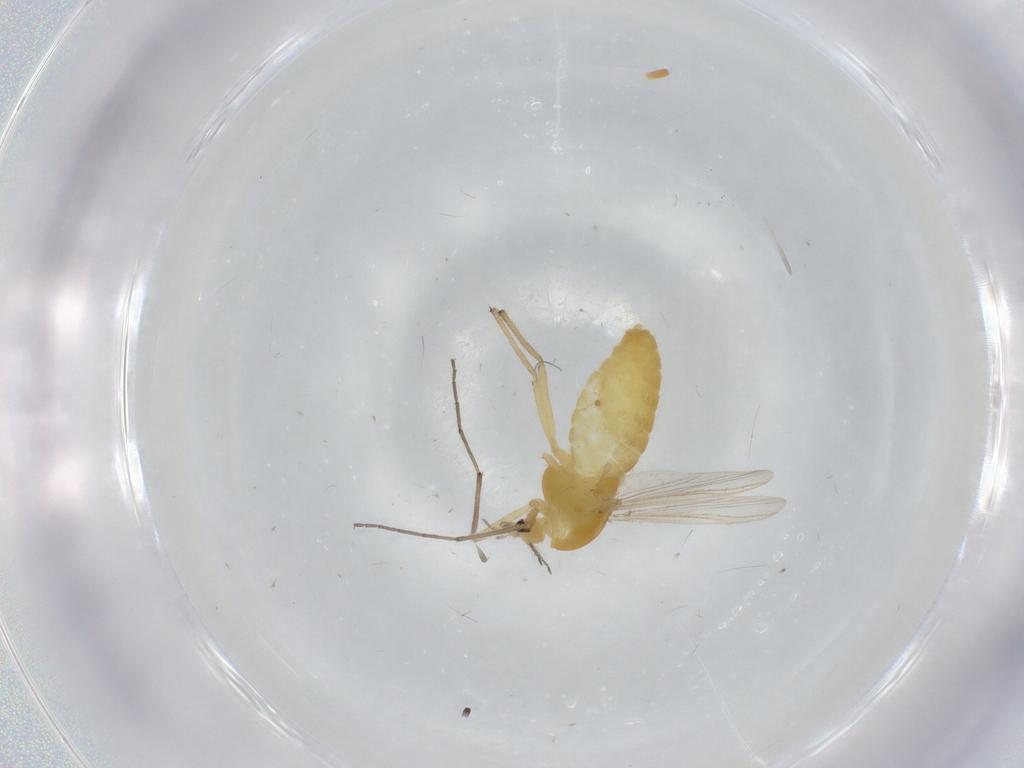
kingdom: Animalia
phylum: Arthropoda
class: Insecta
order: Diptera
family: Chironomidae
